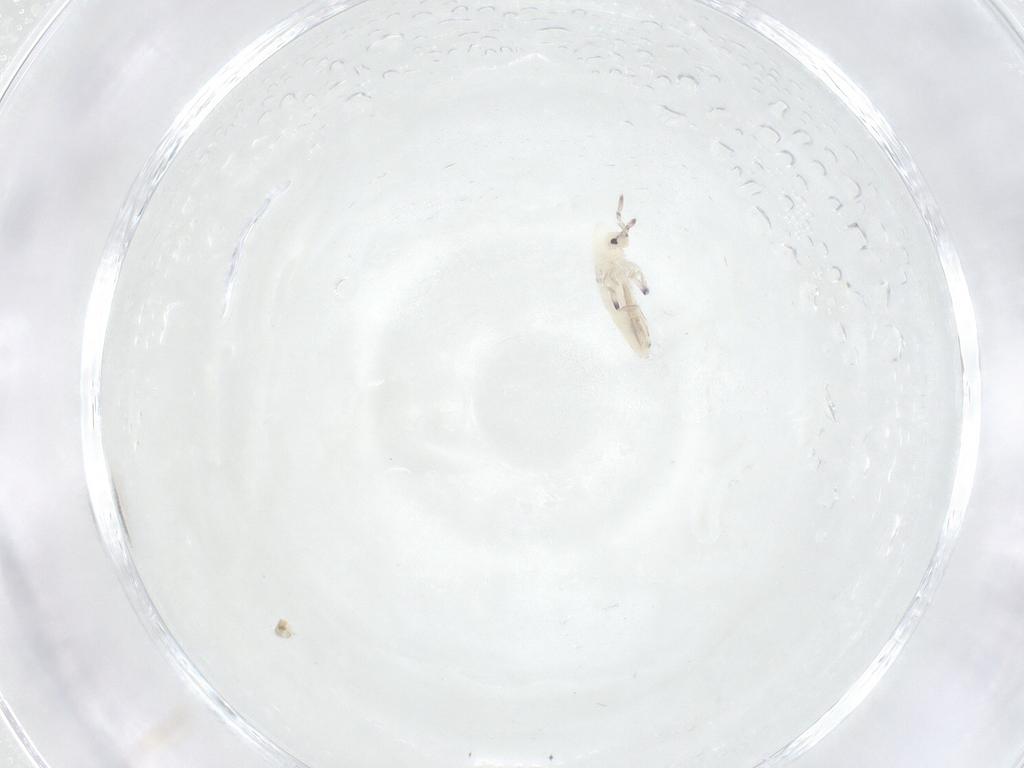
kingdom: Animalia
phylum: Arthropoda
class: Collembola
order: Entomobryomorpha
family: Entomobryidae
